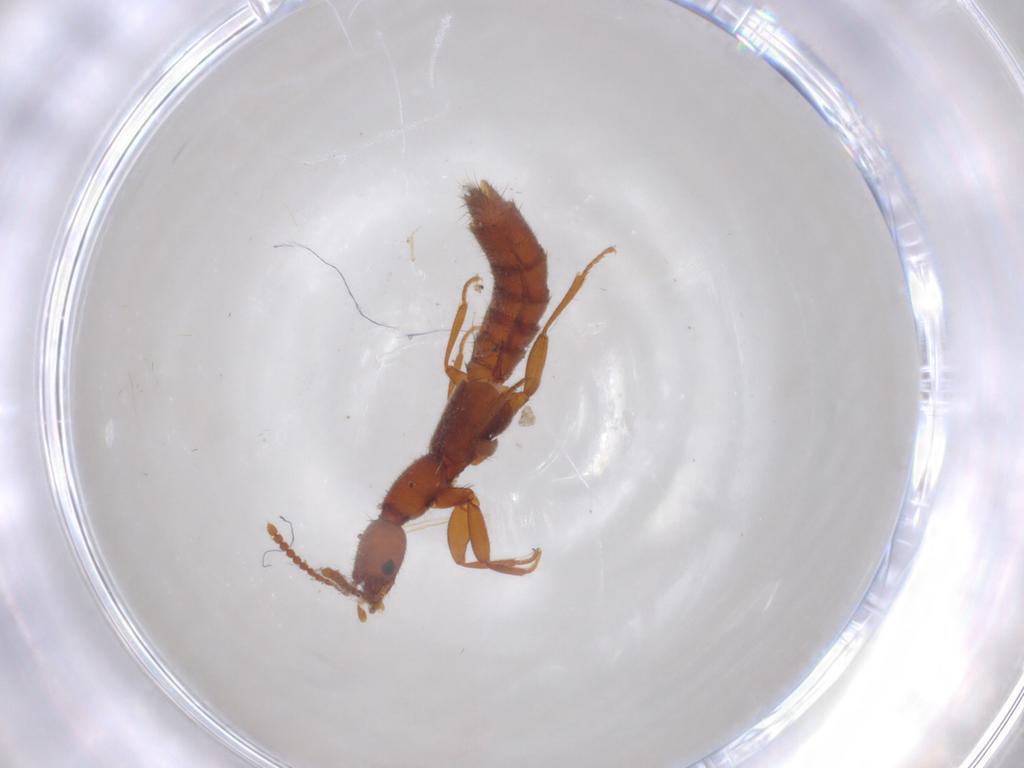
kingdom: Animalia
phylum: Arthropoda
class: Insecta
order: Coleoptera
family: Staphylinidae
